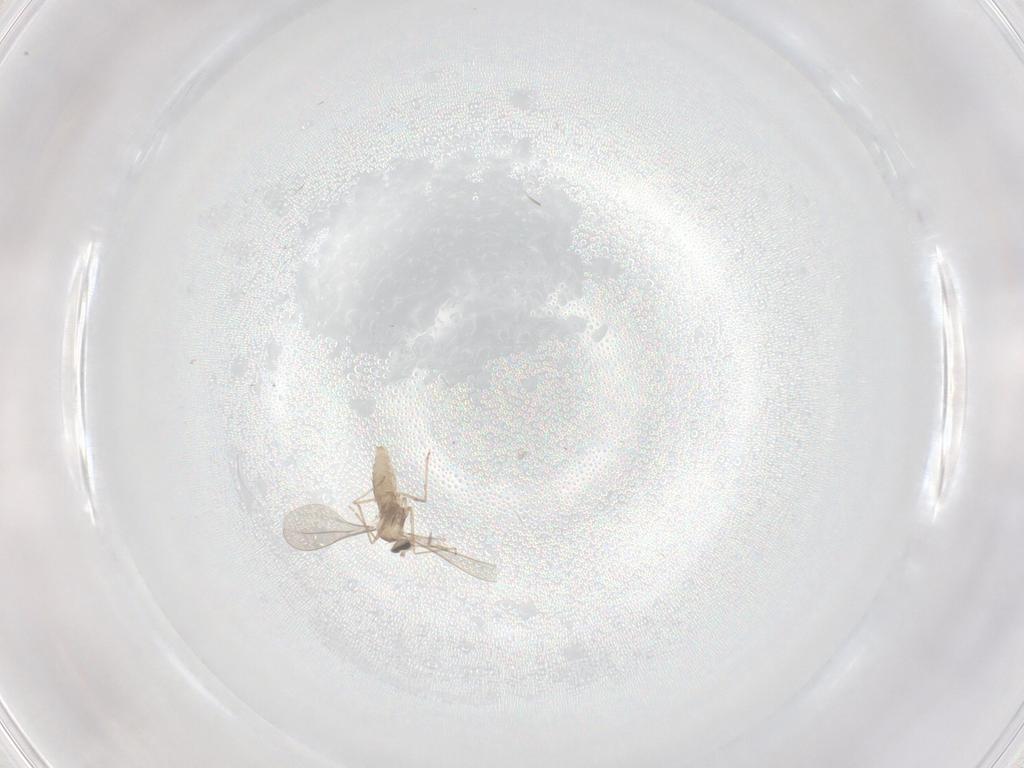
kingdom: Animalia
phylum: Arthropoda
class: Insecta
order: Diptera
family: Cecidomyiidae
